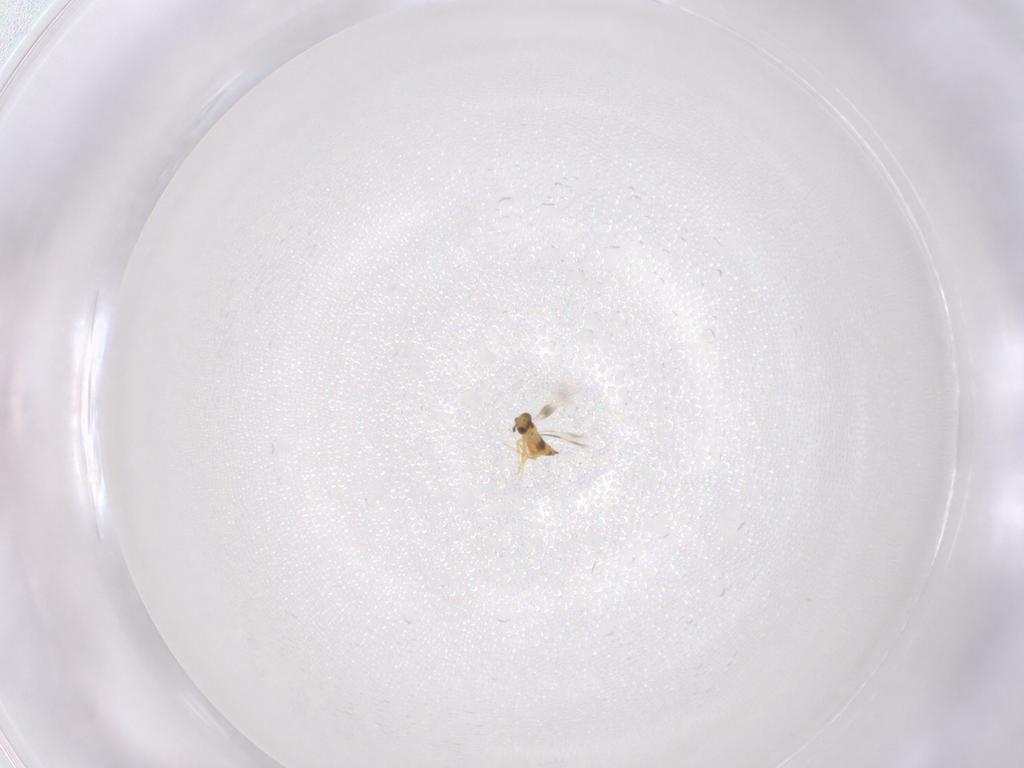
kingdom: Animalia
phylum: Arthropoda
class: Insecta
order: Hymenoptera
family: Signiphoridae
